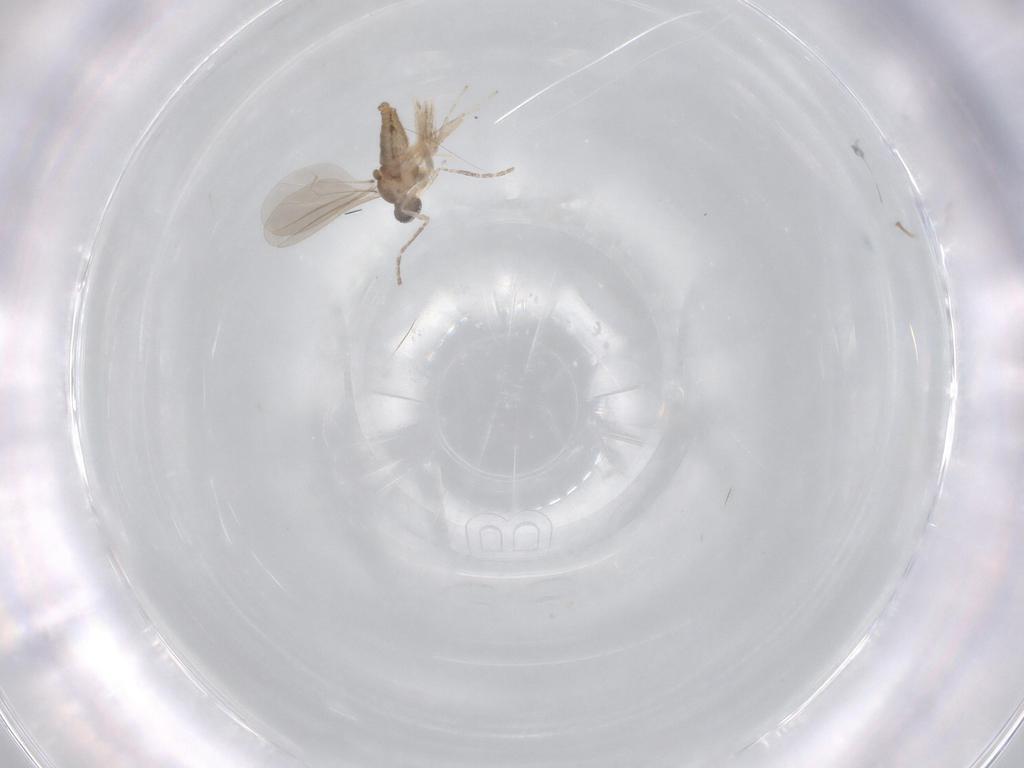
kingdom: Animalia
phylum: Arthropoda
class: Insecta
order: Diptera
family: Cecidomyiidae
